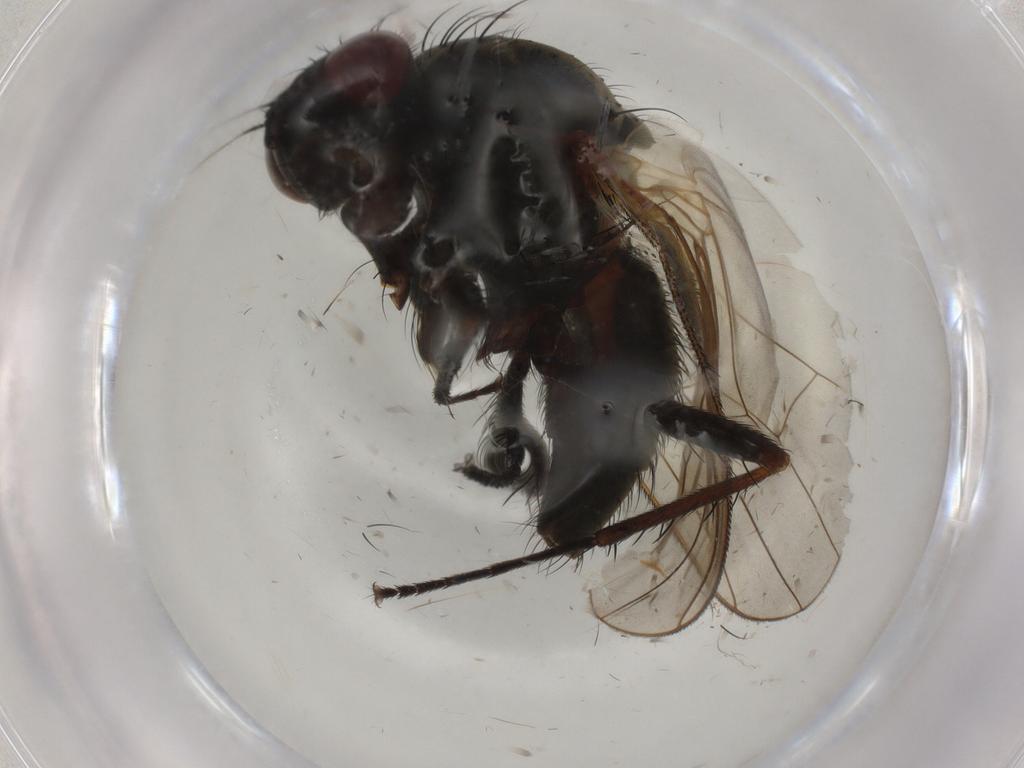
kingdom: Animalia
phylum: Arthropoda
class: Insecta
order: Diptera
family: Anthomyiidae
